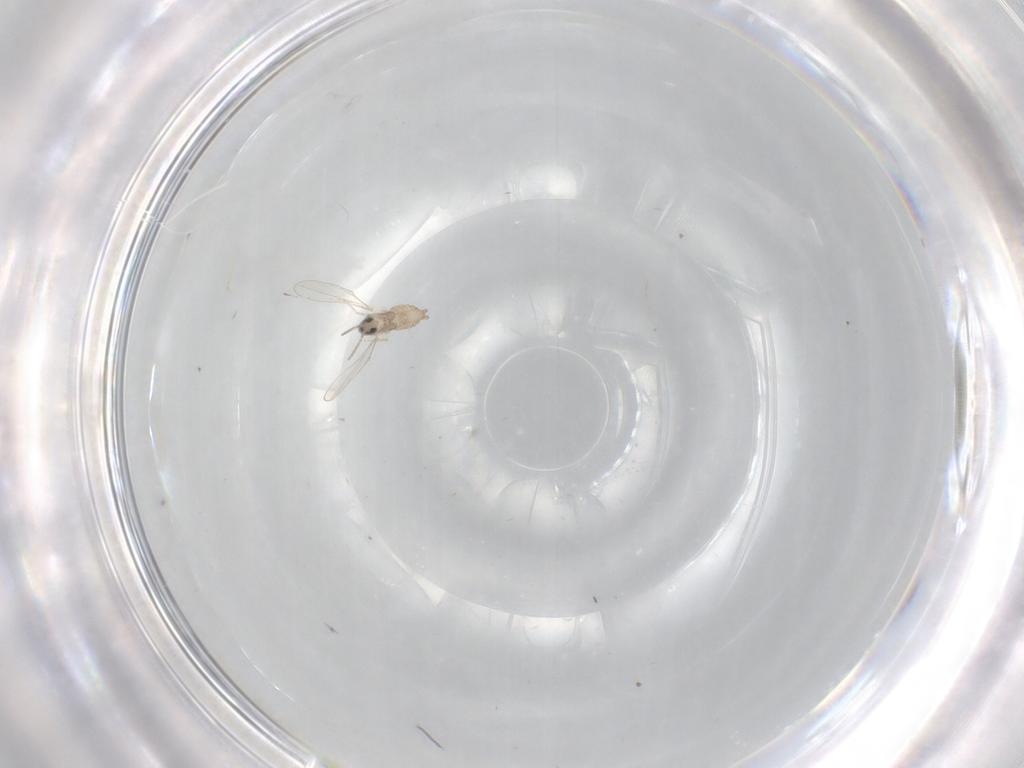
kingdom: Animalia
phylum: Arthropoda
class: Insecta
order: Diptera
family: Cecidomyiidae
